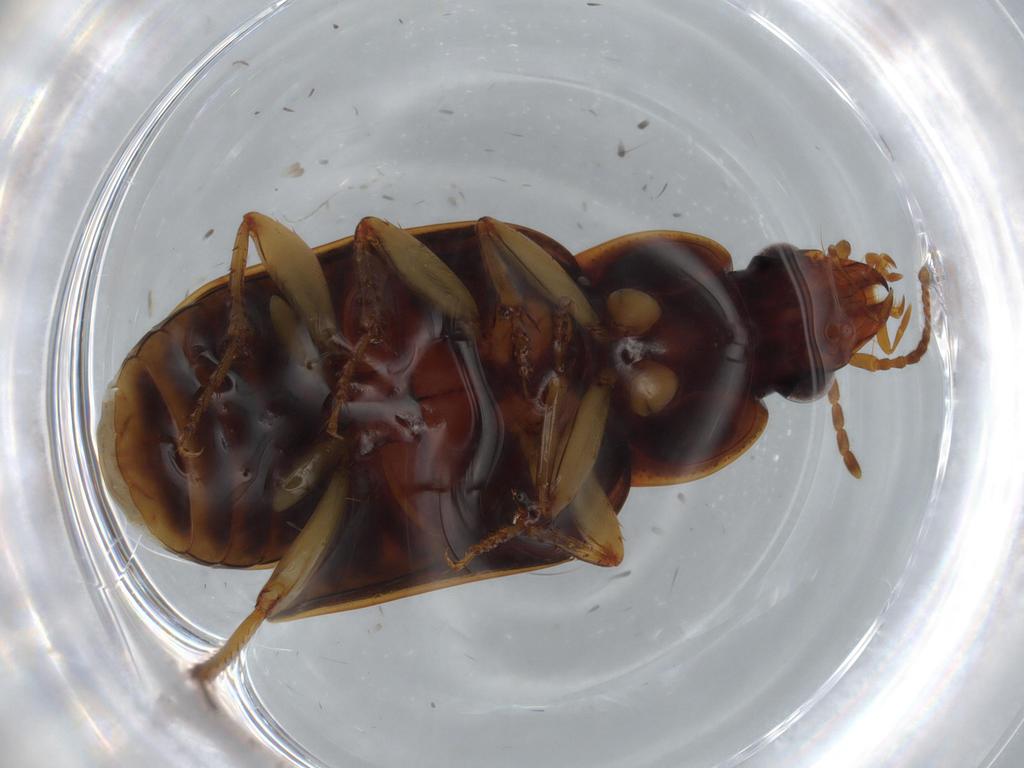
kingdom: Animalia
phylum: Arthropoda
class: Insecta
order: Coleoptera
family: Carabidae
